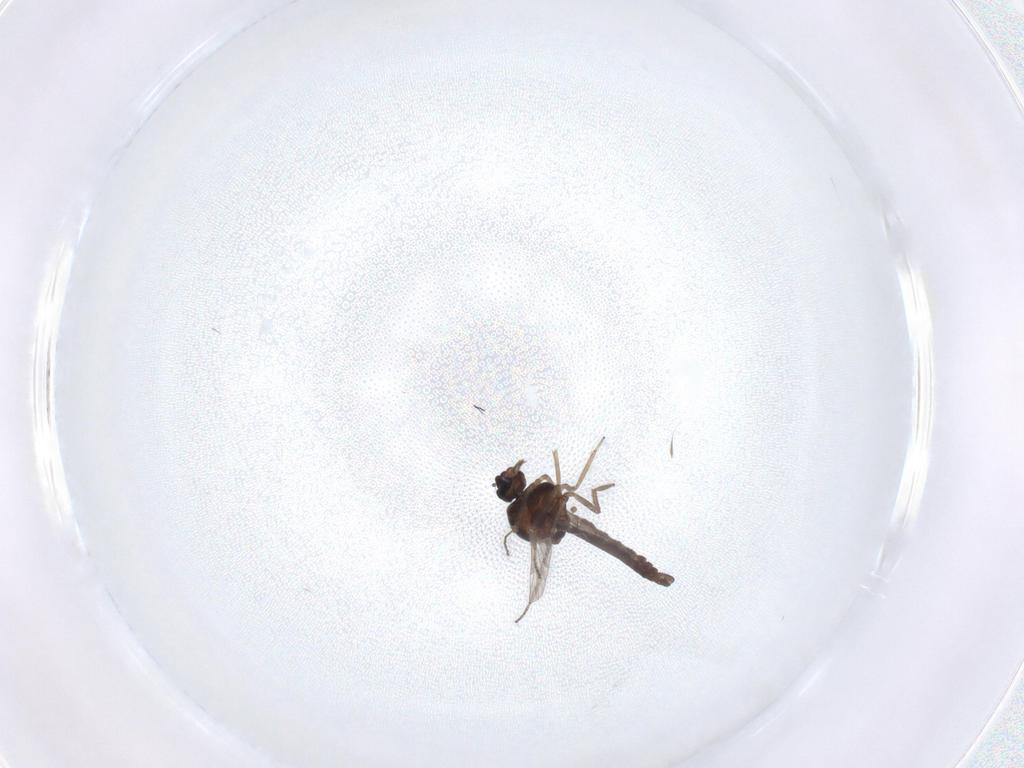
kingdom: Animalia
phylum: Arthropoda
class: Insecta
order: Diptera
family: Ceratopogonidae
